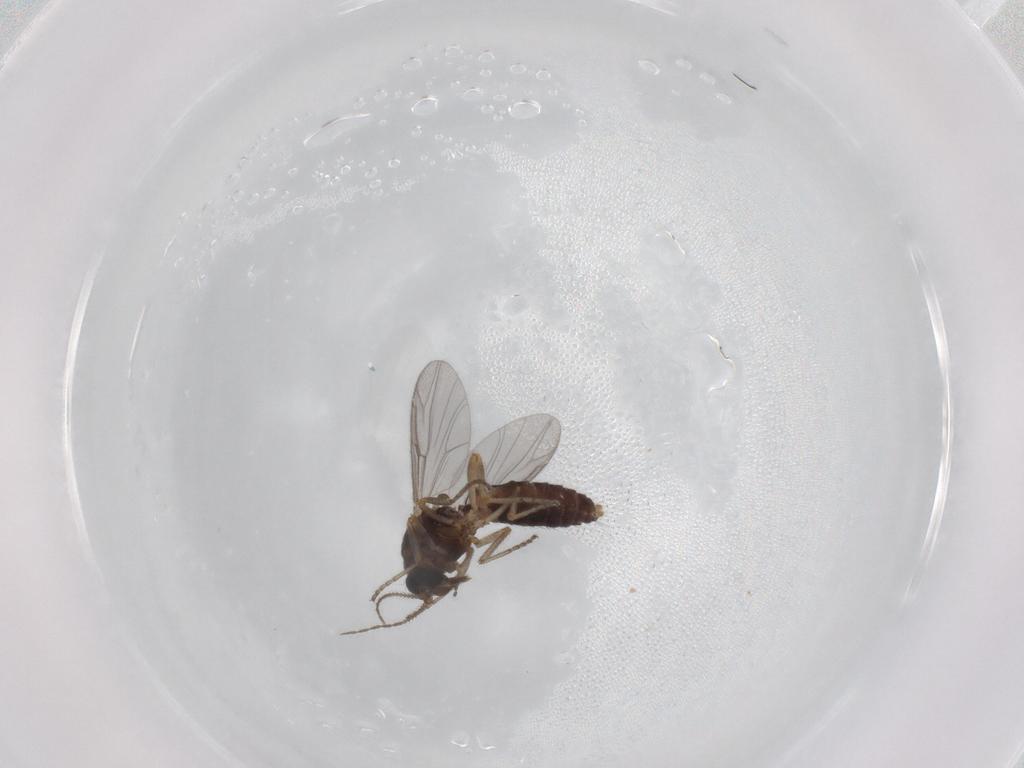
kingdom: Animalia
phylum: Arthropoda
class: Insecta
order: Diptera
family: Ceratopogonidae
